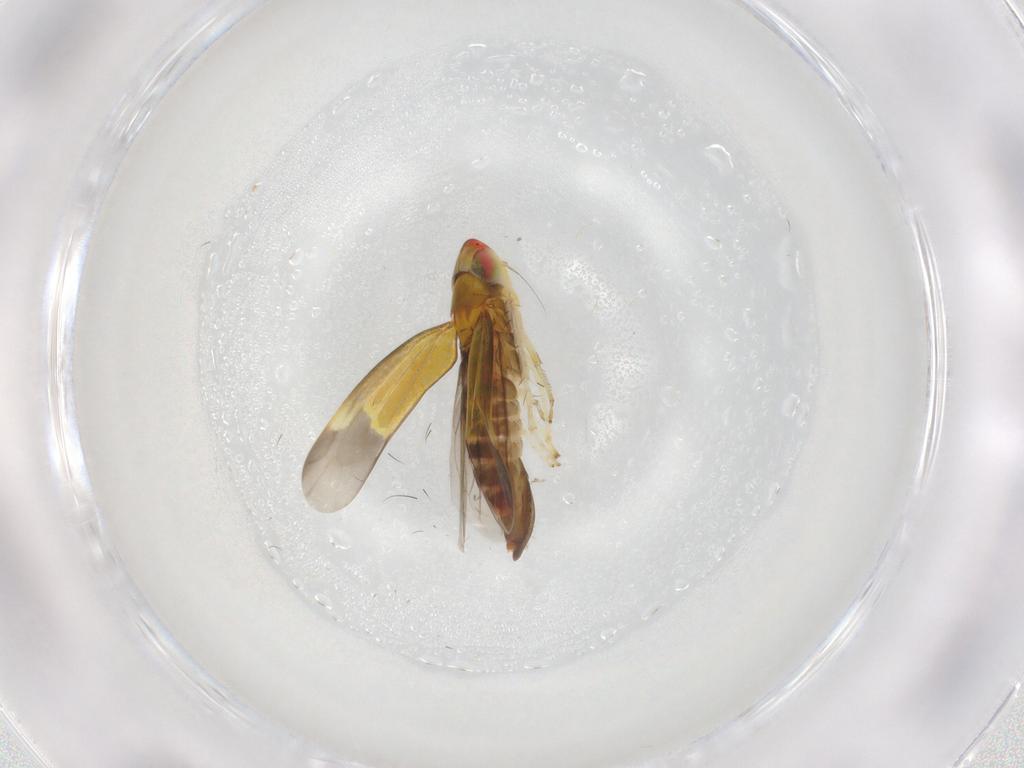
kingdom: Animalia
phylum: Arthropoda
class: Insecta
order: Hemiptera
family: Cicadellidae
